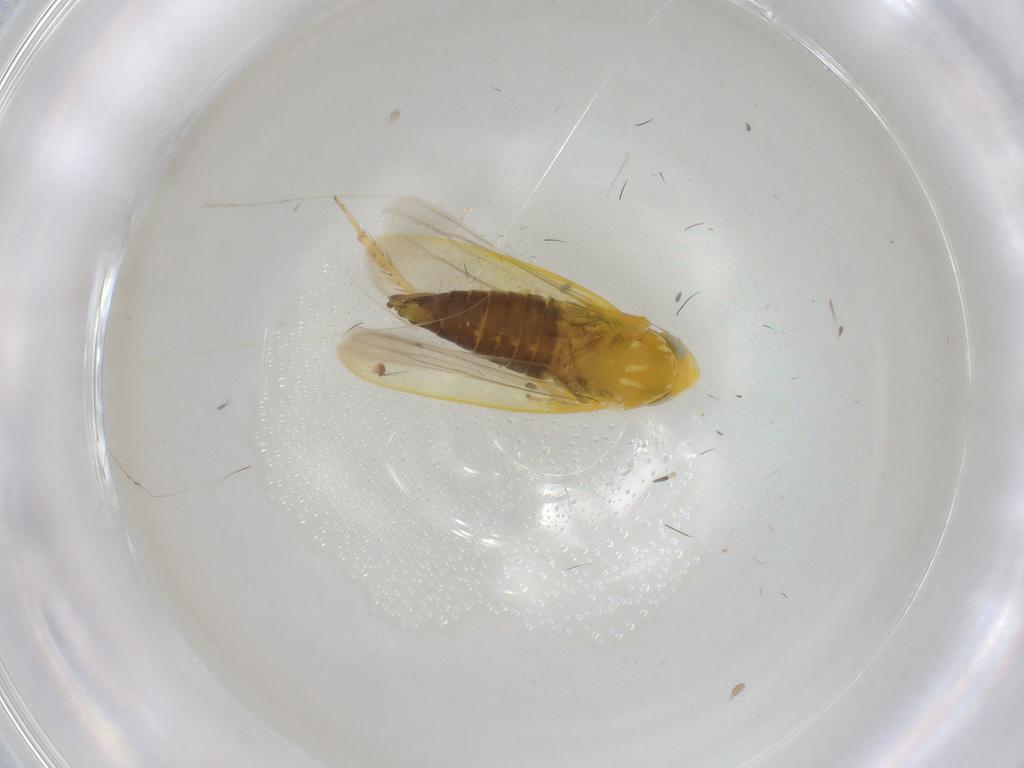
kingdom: Animalia
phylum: Arthropoda
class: Insecta
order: Hemiptera
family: Cicadellidae
